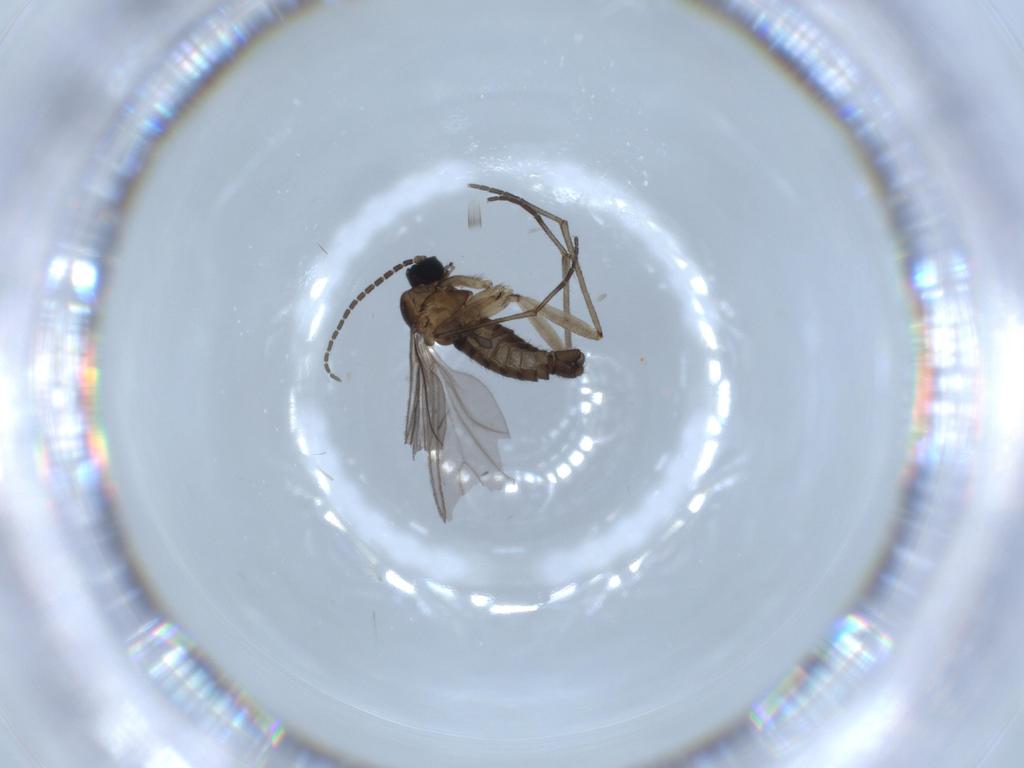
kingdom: Animalia
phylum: Arthropoda
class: Insecta
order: Diptera
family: Sciaridae
